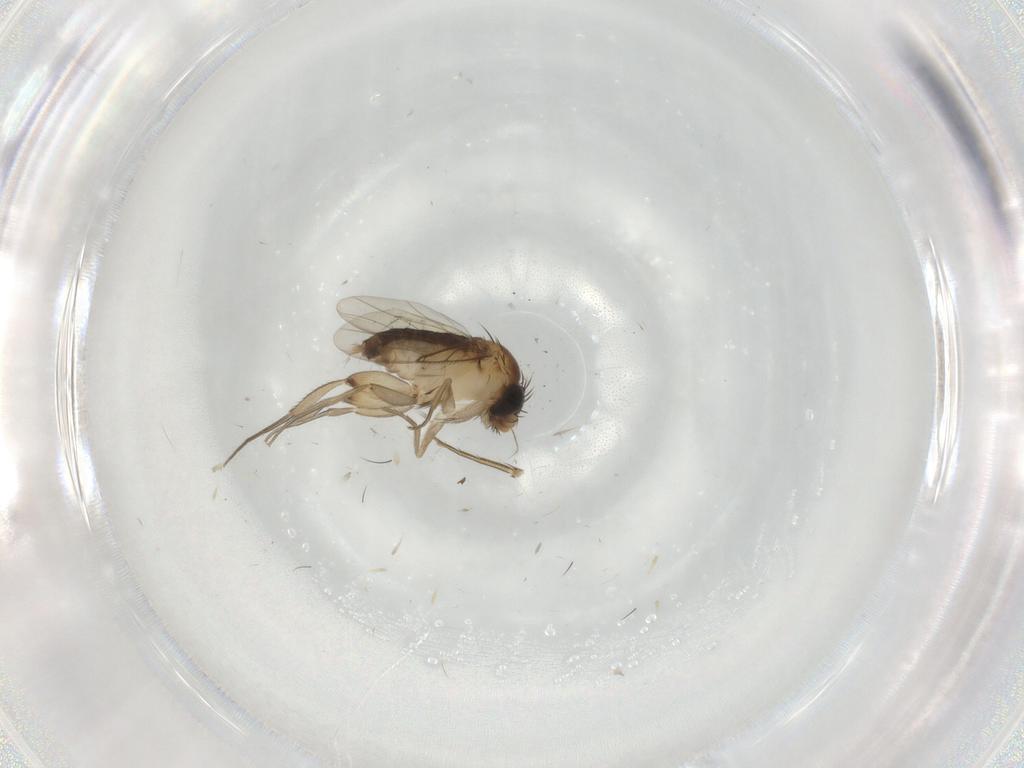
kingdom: Animalia
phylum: Arthropoda
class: Insecta
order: Diptera
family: Phoridae
